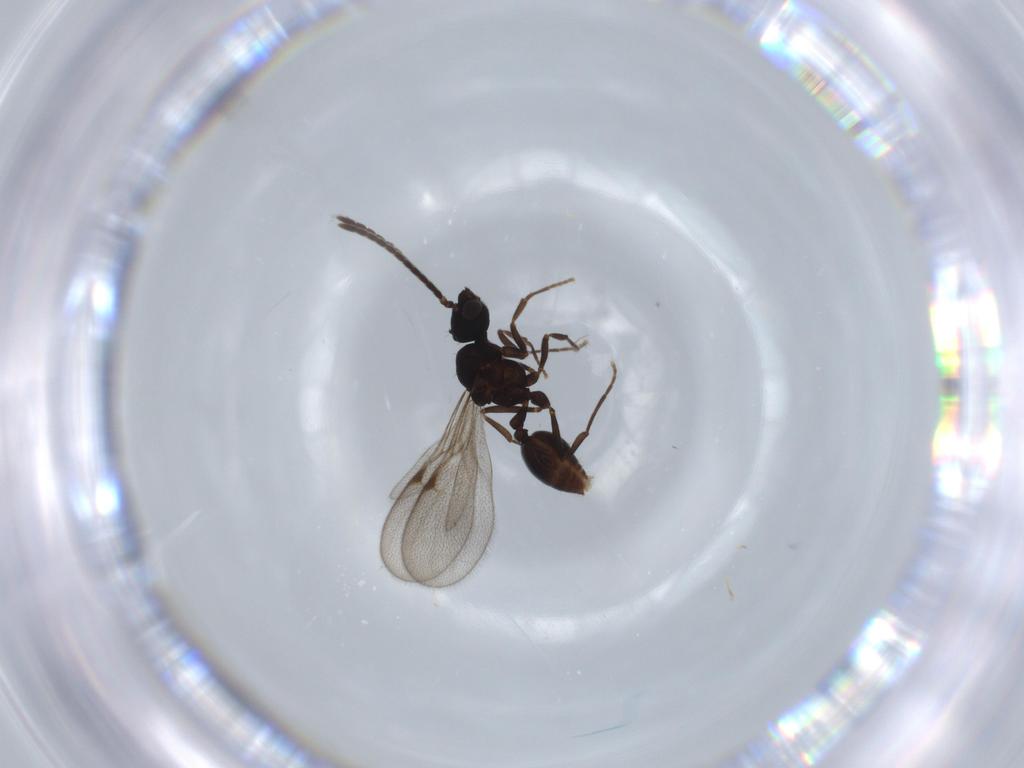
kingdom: Animalia
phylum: Arthropoda
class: Insecta
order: Hymenoptera
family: Formicidae
